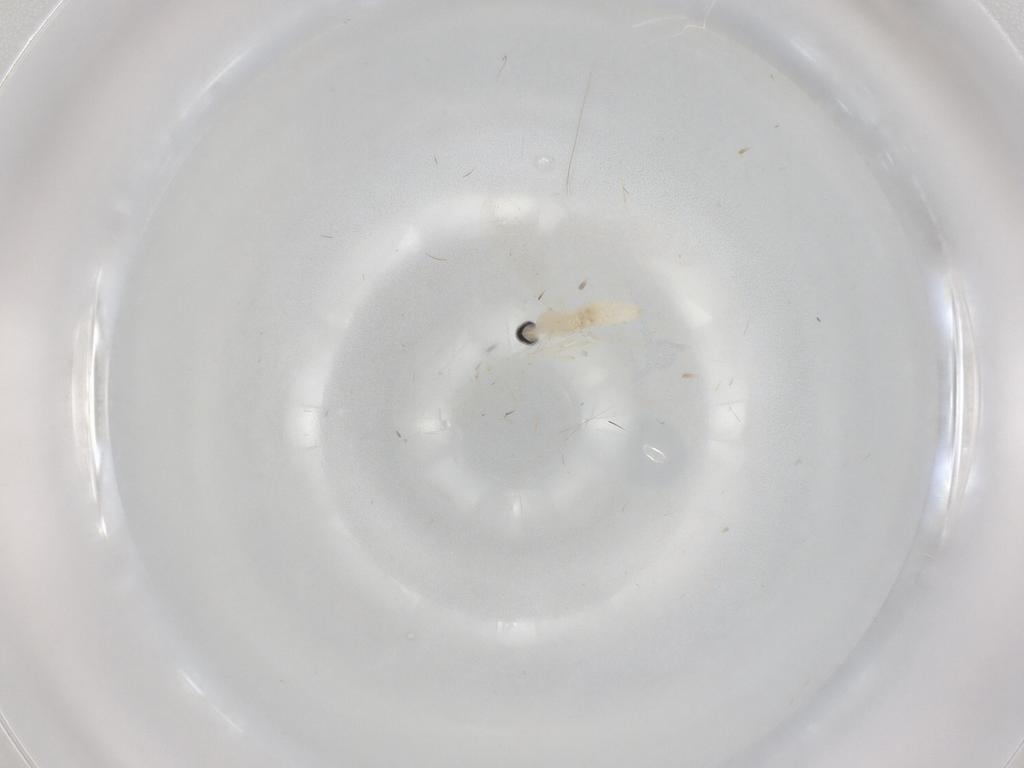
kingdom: Animalia
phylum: Arthropoda
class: Insecta
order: Diptera
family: Cecidomyiidae
